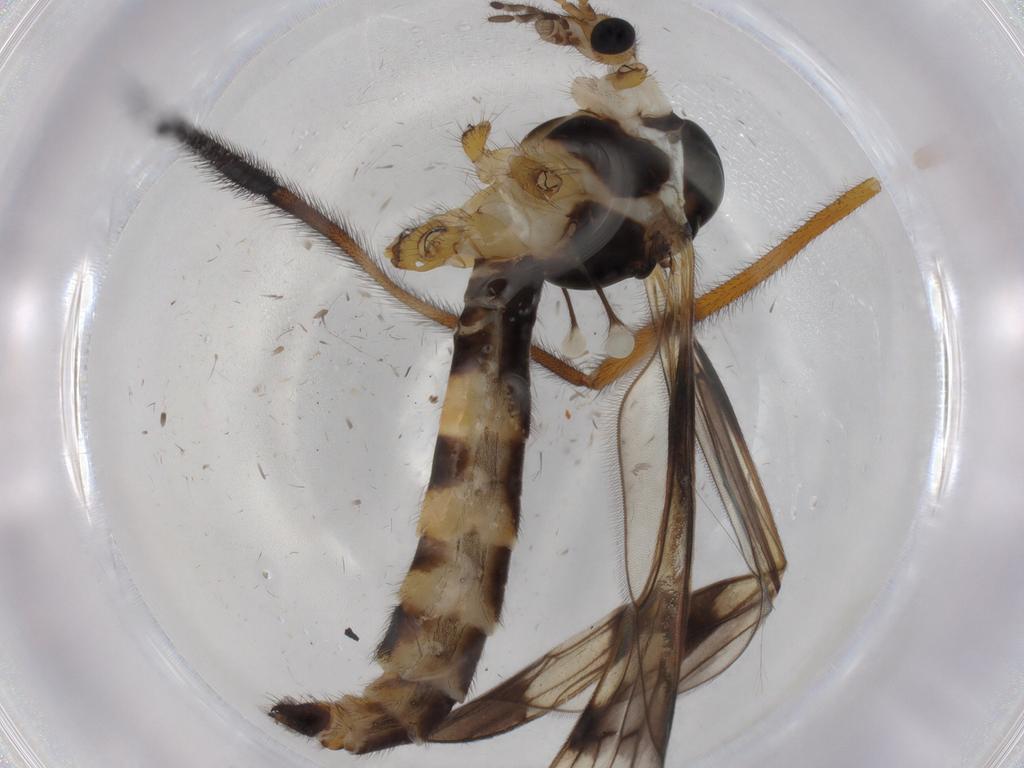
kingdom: Animalia
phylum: Arthropoda
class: Insecta
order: Diptera
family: Limoniidae
